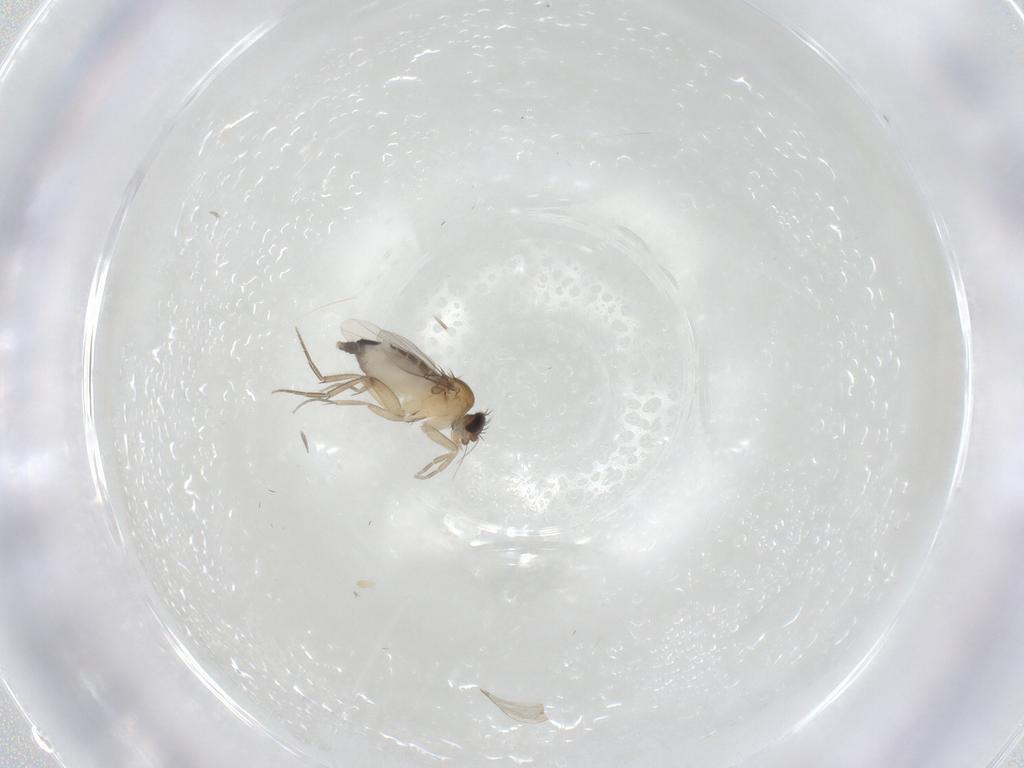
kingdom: Animalia
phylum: Arthropoda
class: Insecta
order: Diptera
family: Phoridae
